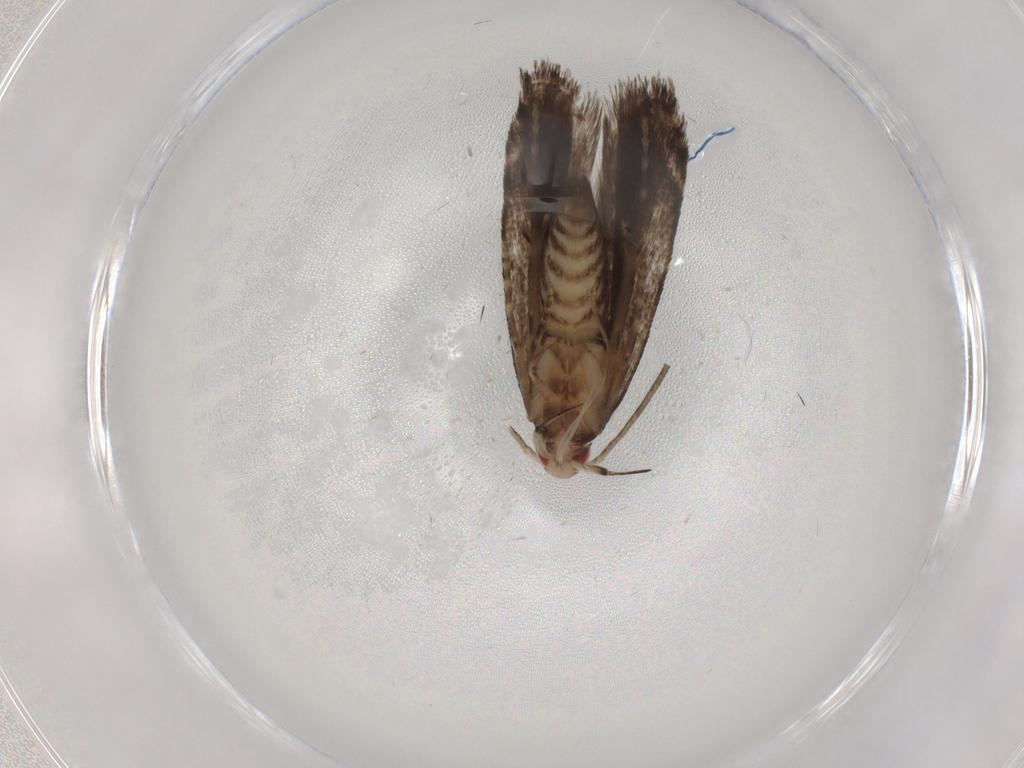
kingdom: Animalia
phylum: Arthropoda
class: Insecta
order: Lepidoptera
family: Gelechiidae
